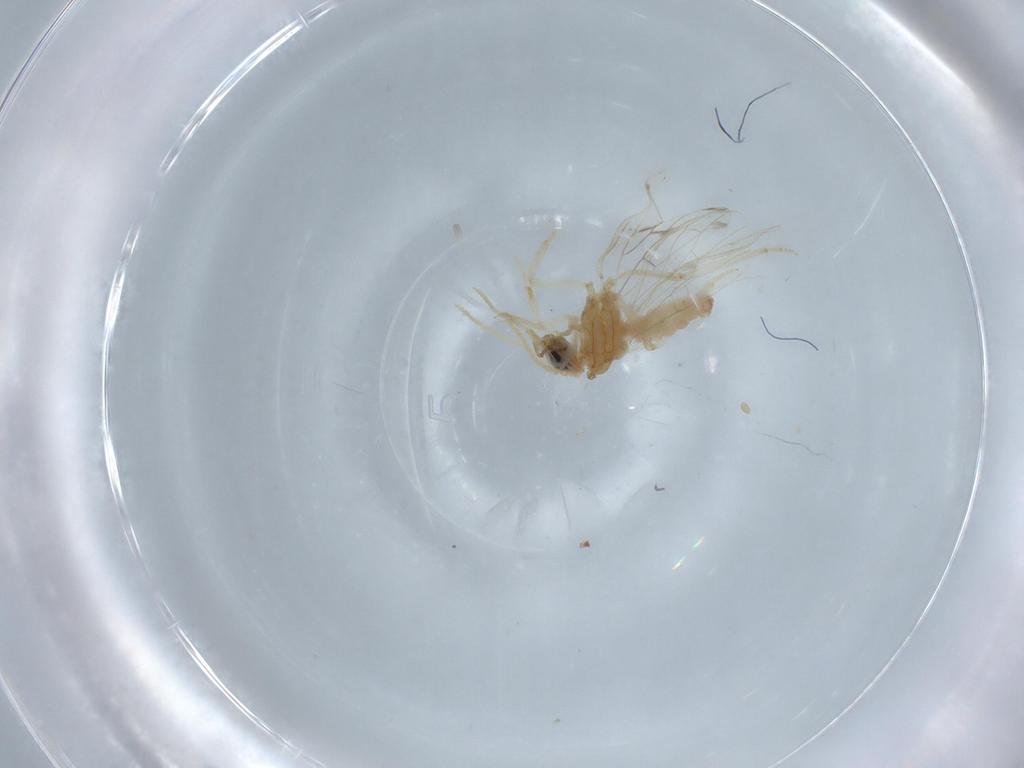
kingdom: Animalia
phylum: Arthropoda
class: Insecta
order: Neuroptera
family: Coniopterygidae
